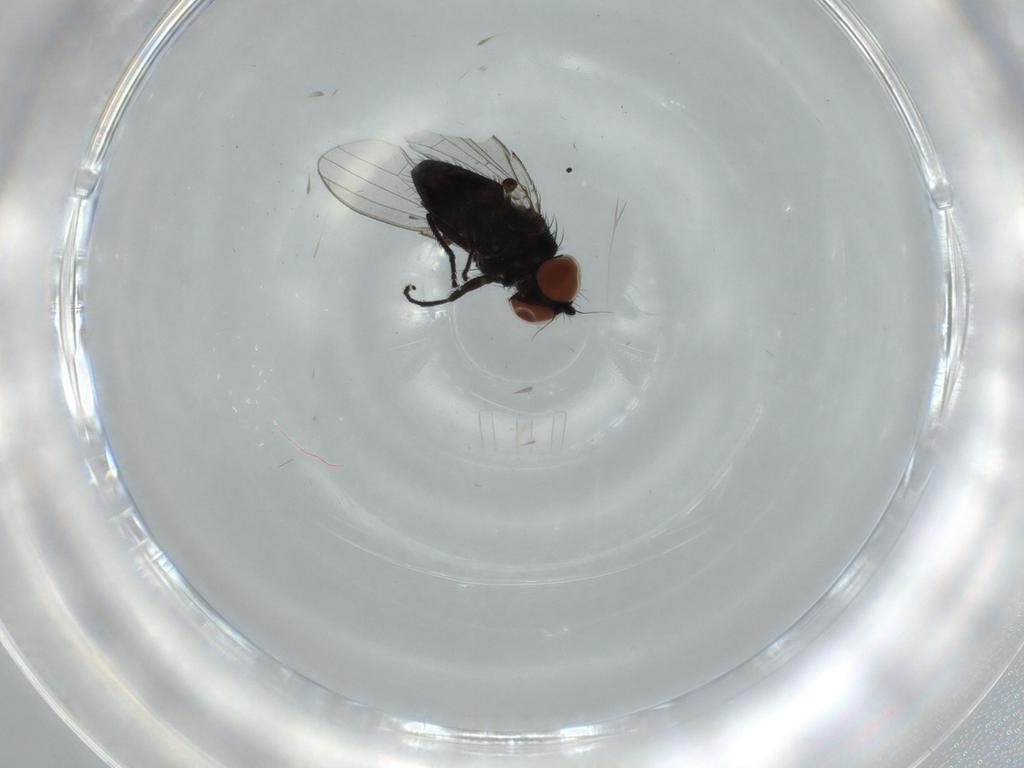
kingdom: Animalia
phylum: Arthropoda
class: Insecta
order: Diptera
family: Milichiidae
